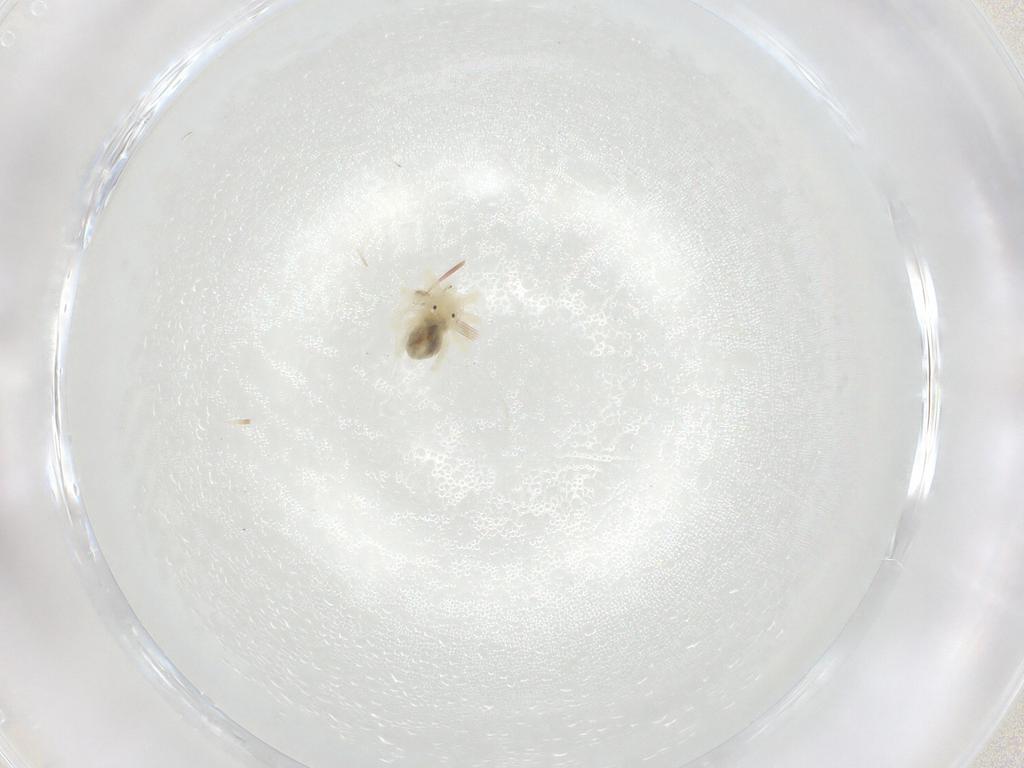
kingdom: Animalia
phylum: Arthropoda
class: Arachnida
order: Trombidiformes
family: Anystidae
